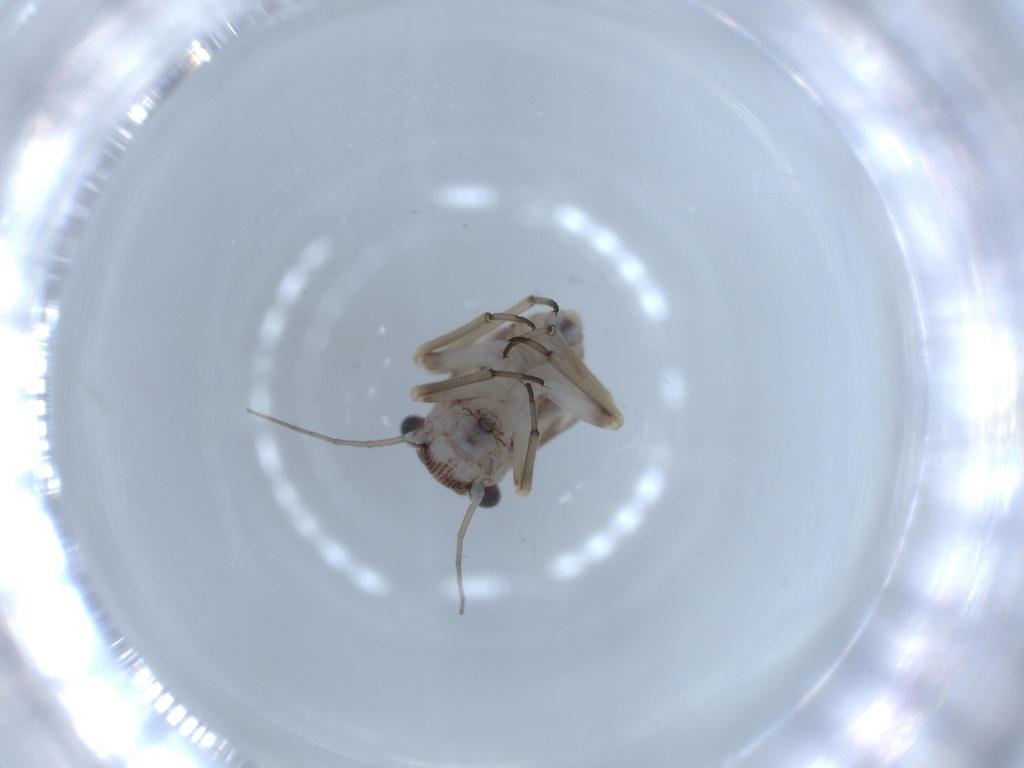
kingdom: Animalia
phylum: Arthropoda
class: Insecta
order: Psocodea
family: Psocidae
